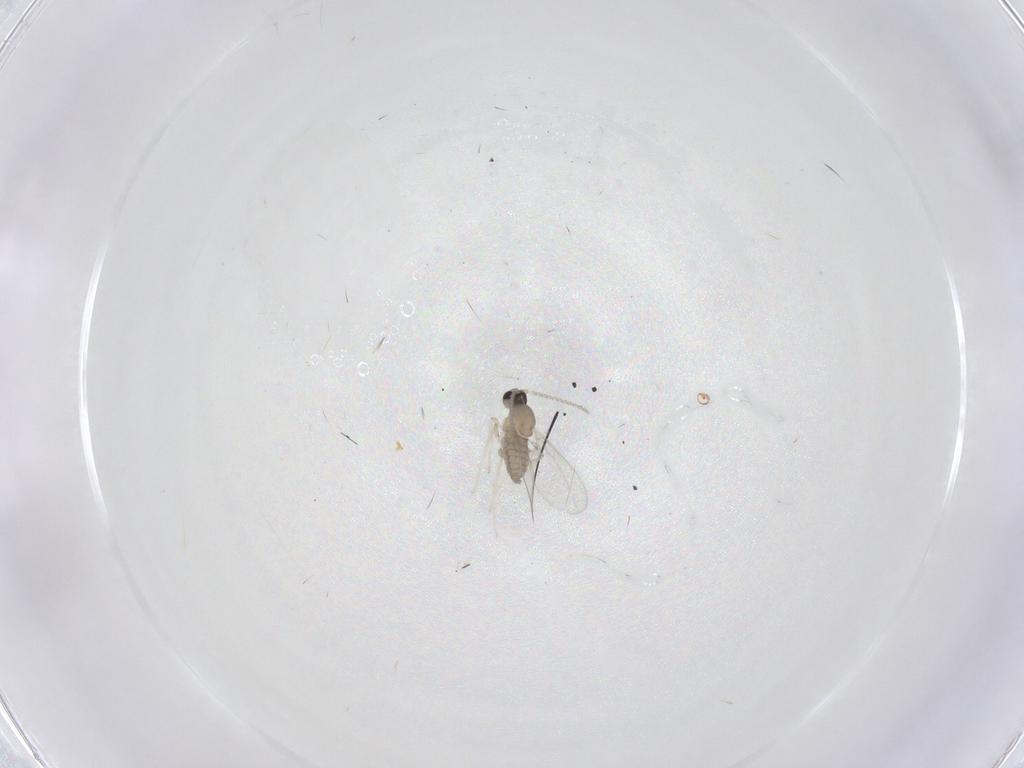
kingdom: Animalia
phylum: Arthropoda
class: Insecta
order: Diptera
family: Cecidomyiidae
